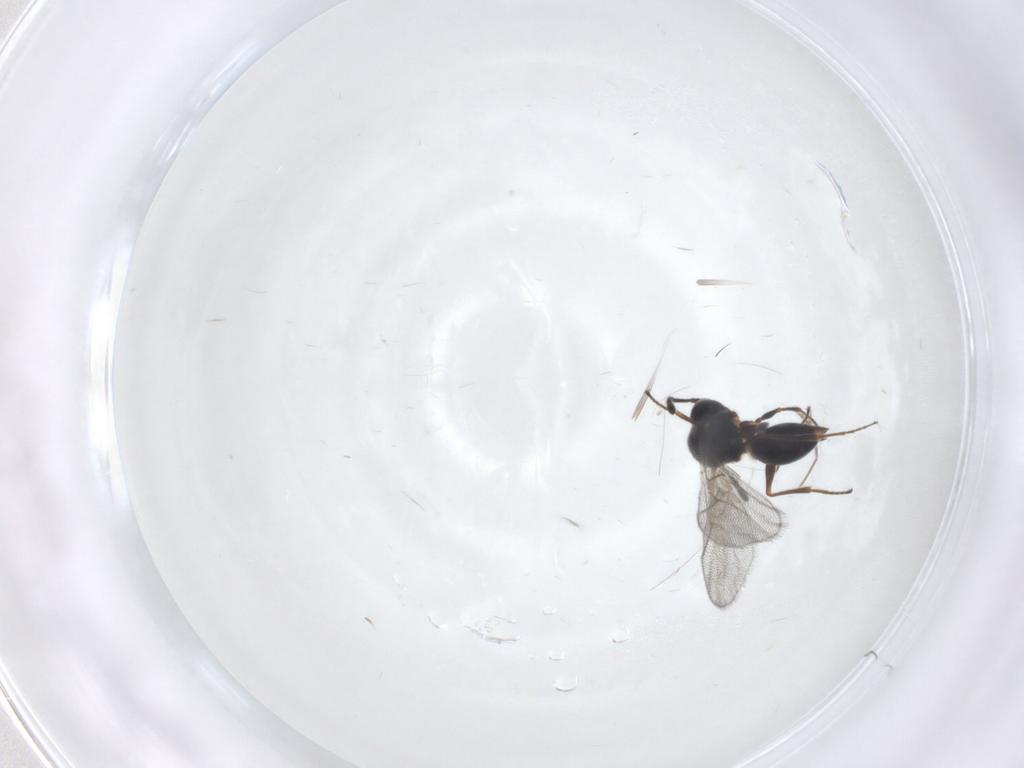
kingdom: Animalia
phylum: Arthropoda
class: Insecta
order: Hymenoptera
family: Figitidae
